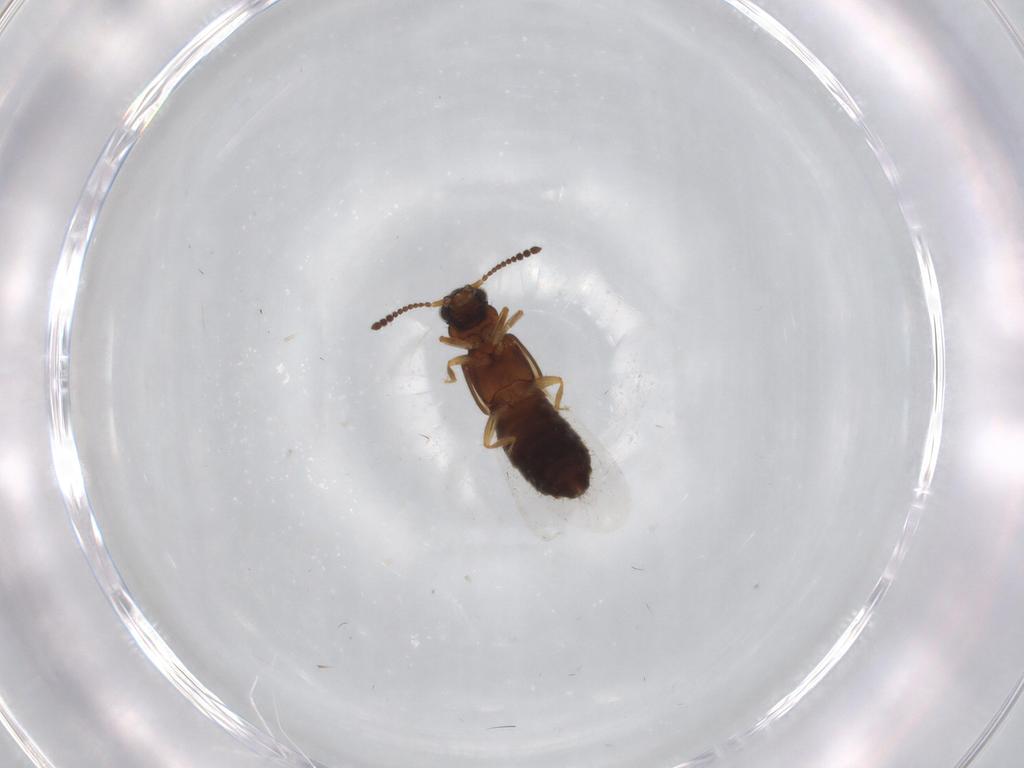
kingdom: Animalia
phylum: Arthropoda
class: Insecta
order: Coleoptera
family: Staphylinidae
